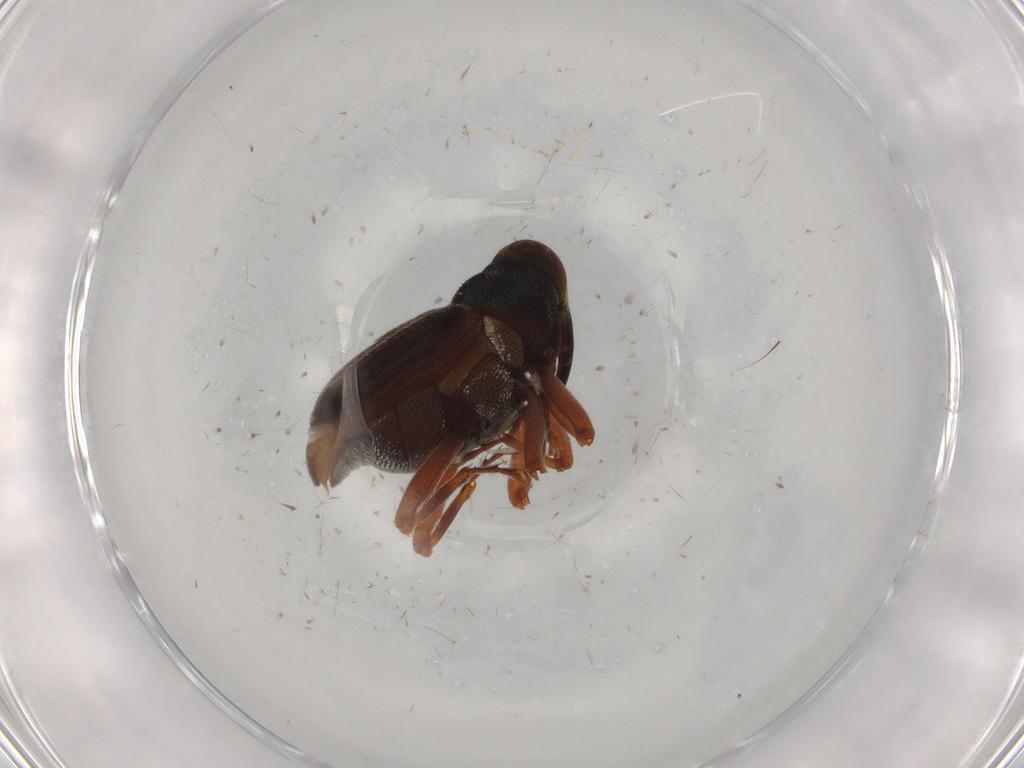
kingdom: Animalia
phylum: Arthropoda
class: Insecta
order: Coleoptera
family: Curculionidae
